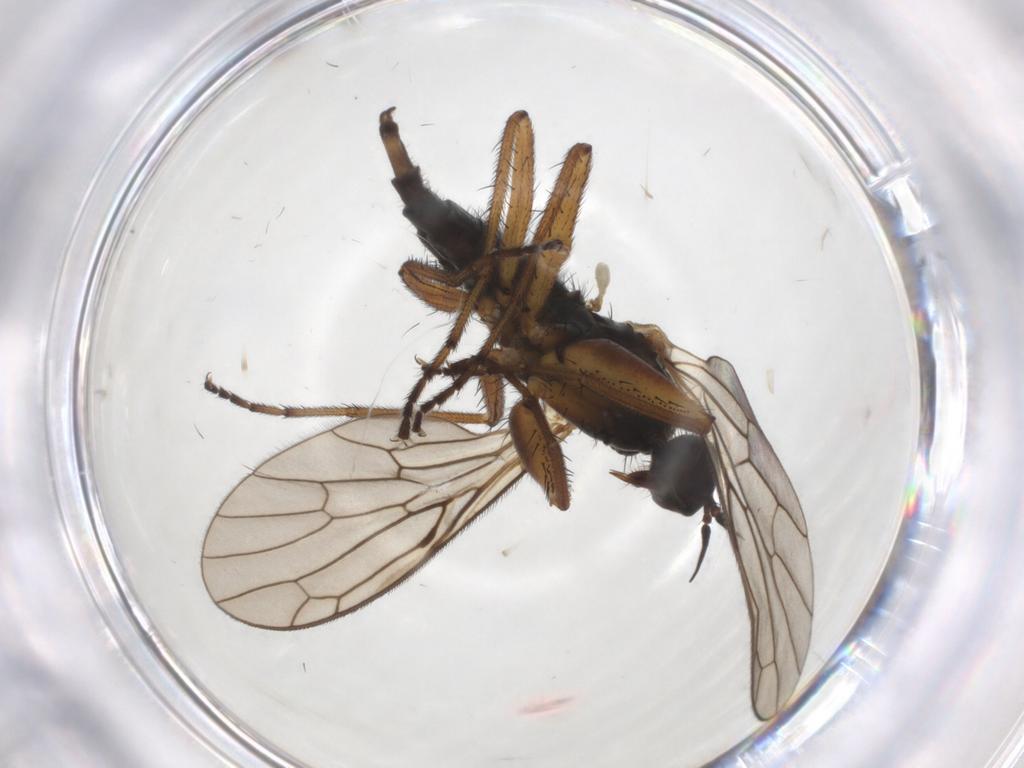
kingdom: Animalia
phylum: Arthropoda
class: Insecta
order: Diptera
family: Empididae
